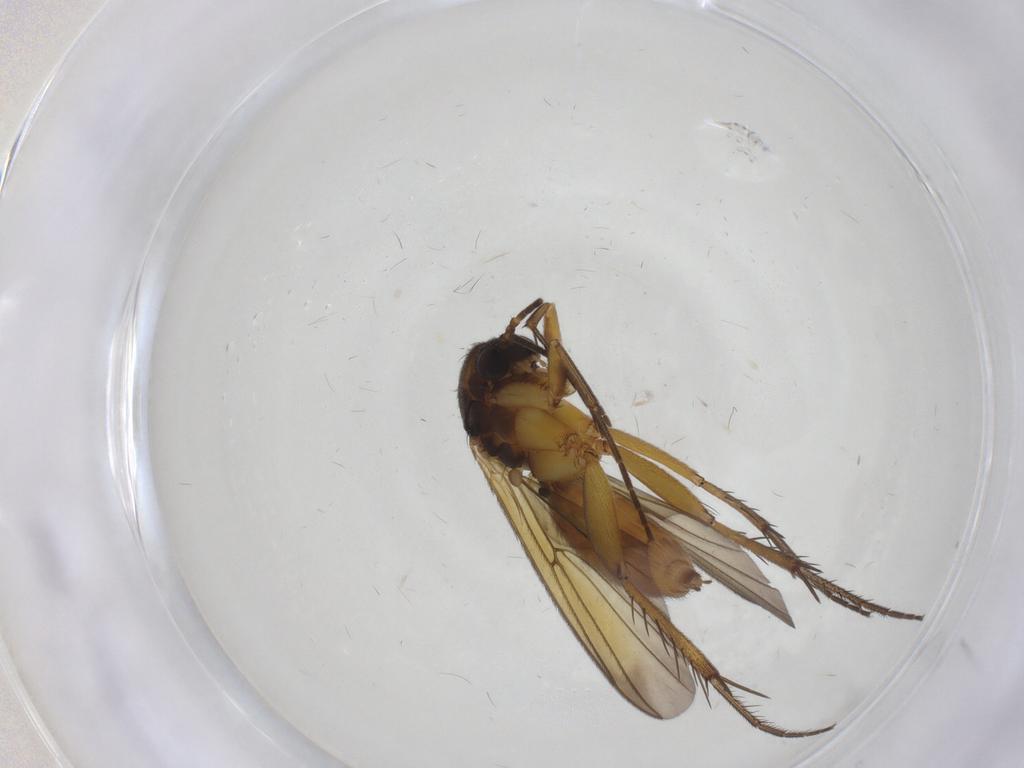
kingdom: Animalia
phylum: Arthropoda
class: Insecta
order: Diptera
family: Mycetophilidae
